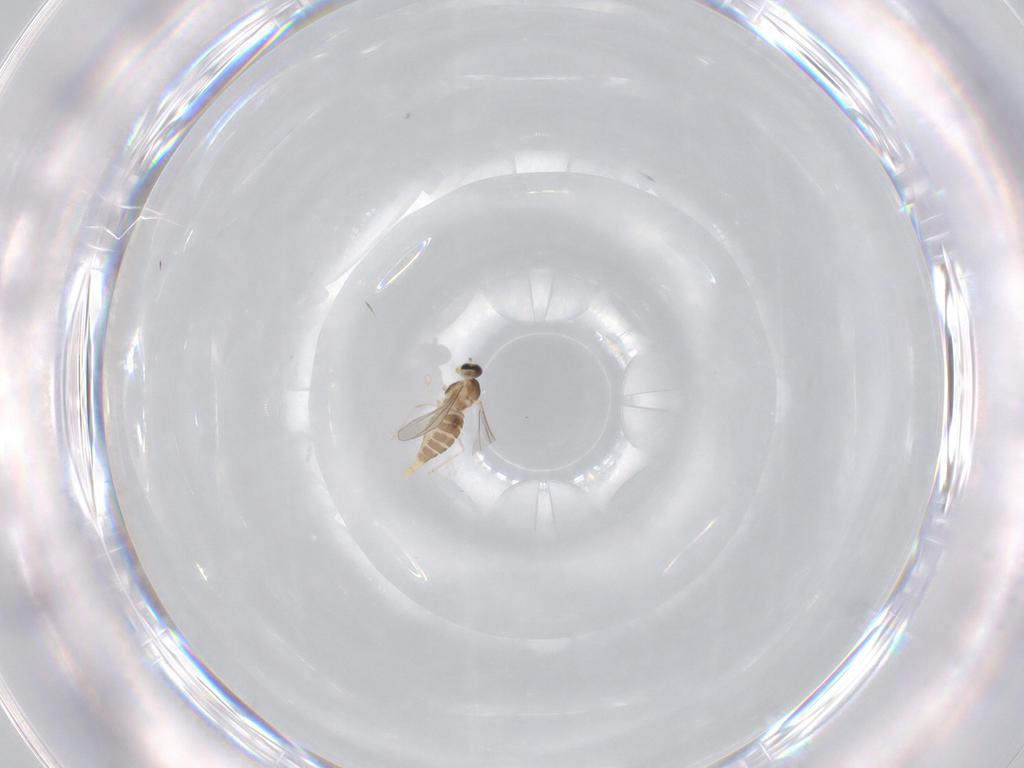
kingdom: Animalia
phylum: Arthropoda
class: Insecta
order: Diptera
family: Cecidomyiidae
